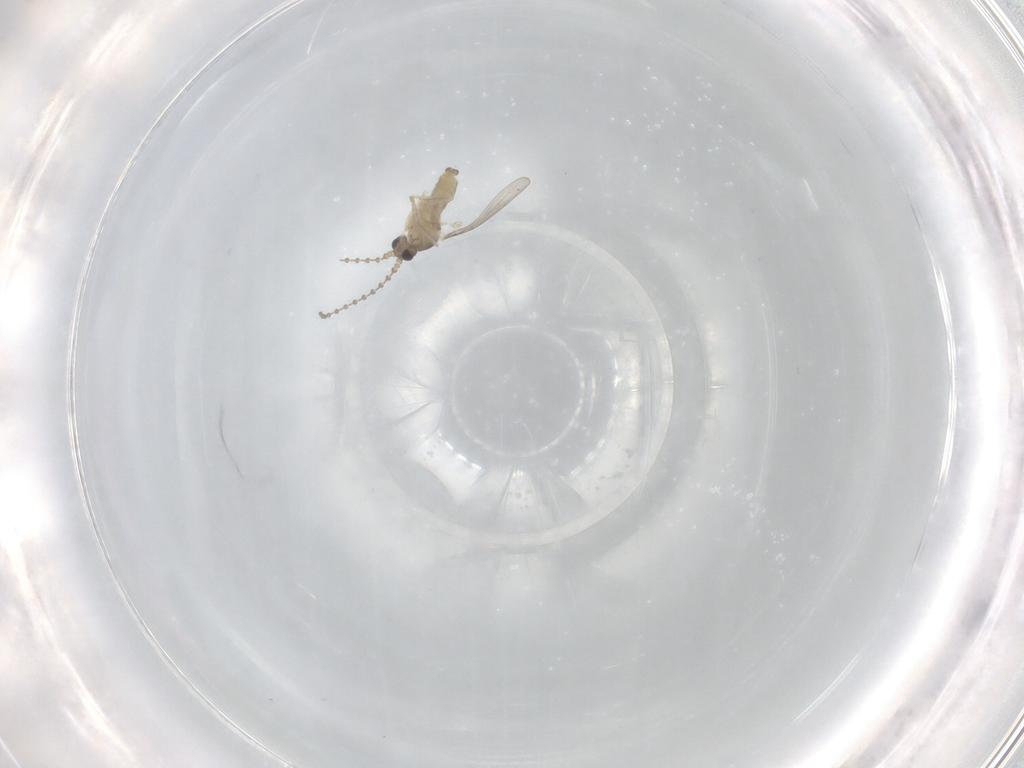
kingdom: Animalia
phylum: Arthropoda
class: Insecta
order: Diptera
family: Cecidomyiidae
